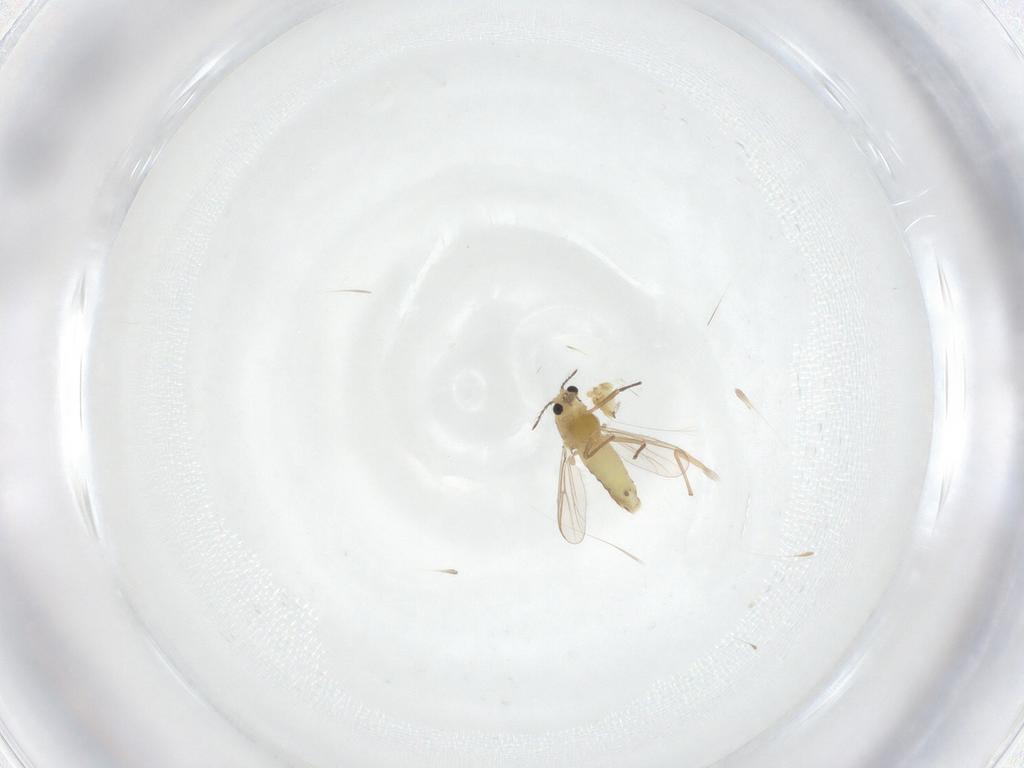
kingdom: Animalia
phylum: Arthropoda
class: Insecta
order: Diptera
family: Chironomidae
